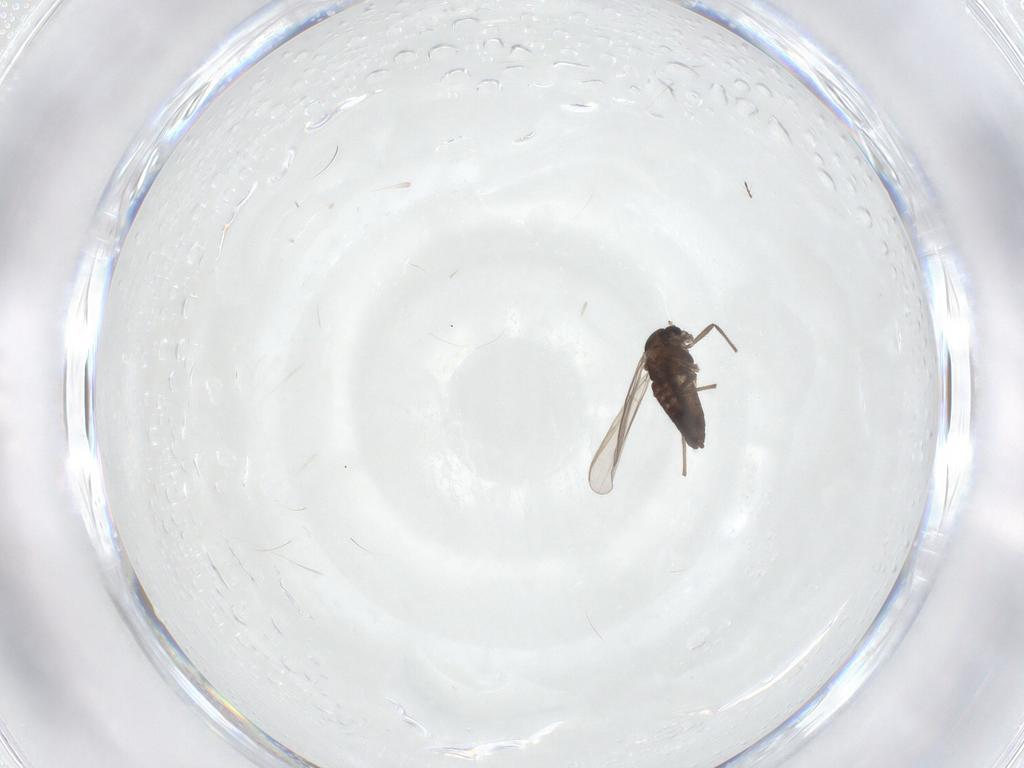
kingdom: Animalia
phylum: Arthropoda
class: Insecta
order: Diptera
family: Chironomidae
